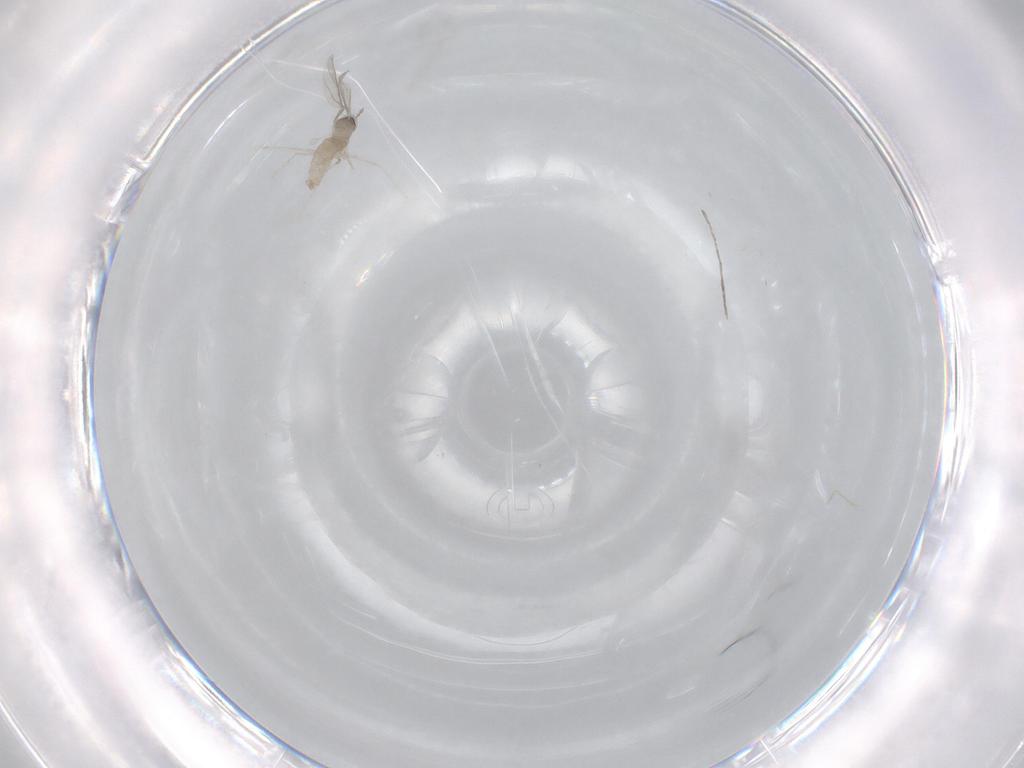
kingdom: Animalia
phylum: Arthropoda
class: Insecta
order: Diptera
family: Cecidomyiidae
